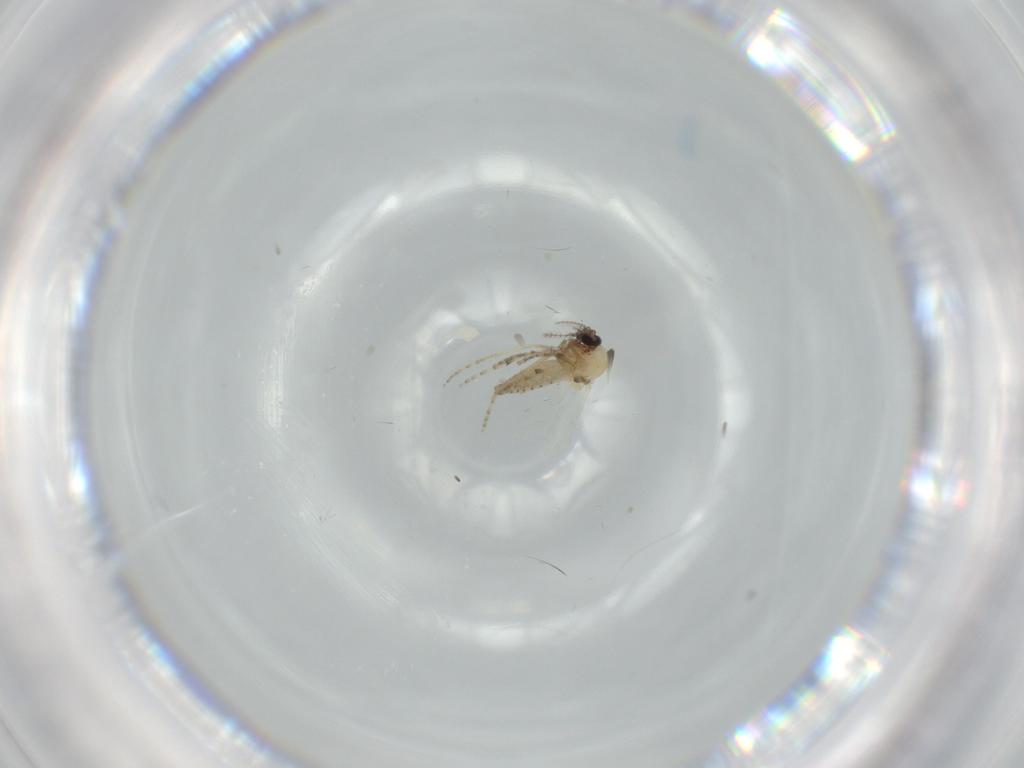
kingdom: Animalia
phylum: Arthropoda
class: Insecta
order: Diptera
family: Ceratopogonidae
